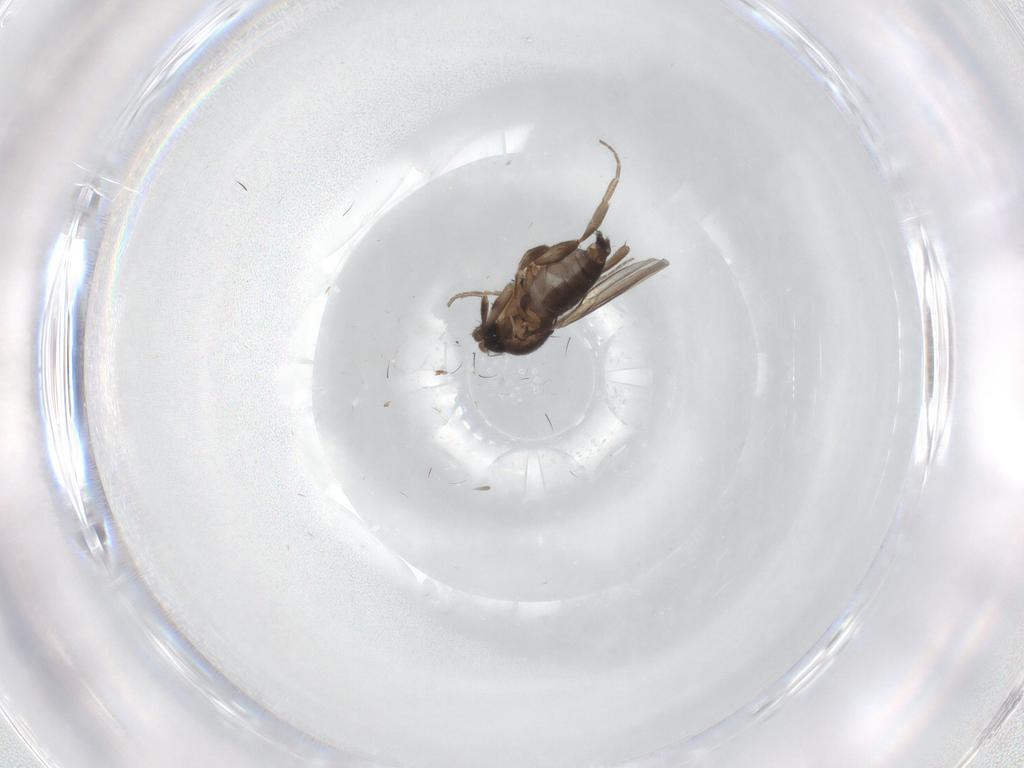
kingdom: Animalia
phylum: Arthropoda
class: Insecta
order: Diptera
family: Phoridae
